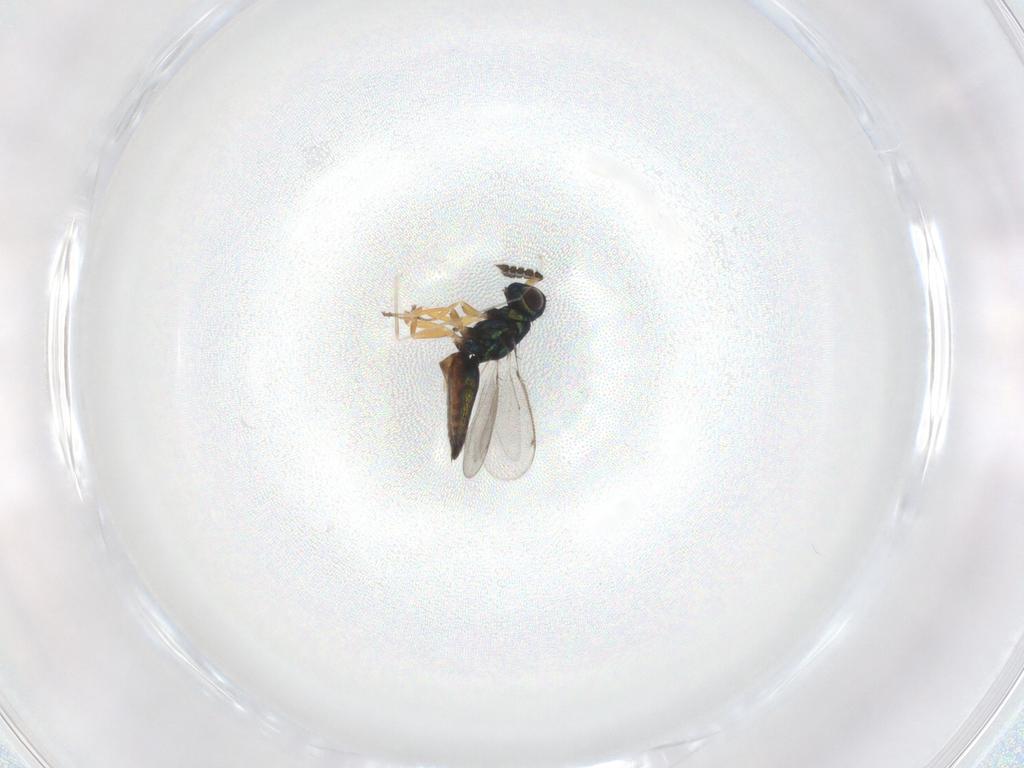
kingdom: Animalia
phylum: Arthropoda
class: Insecta
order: Hymenoptera
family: Eulophidae
